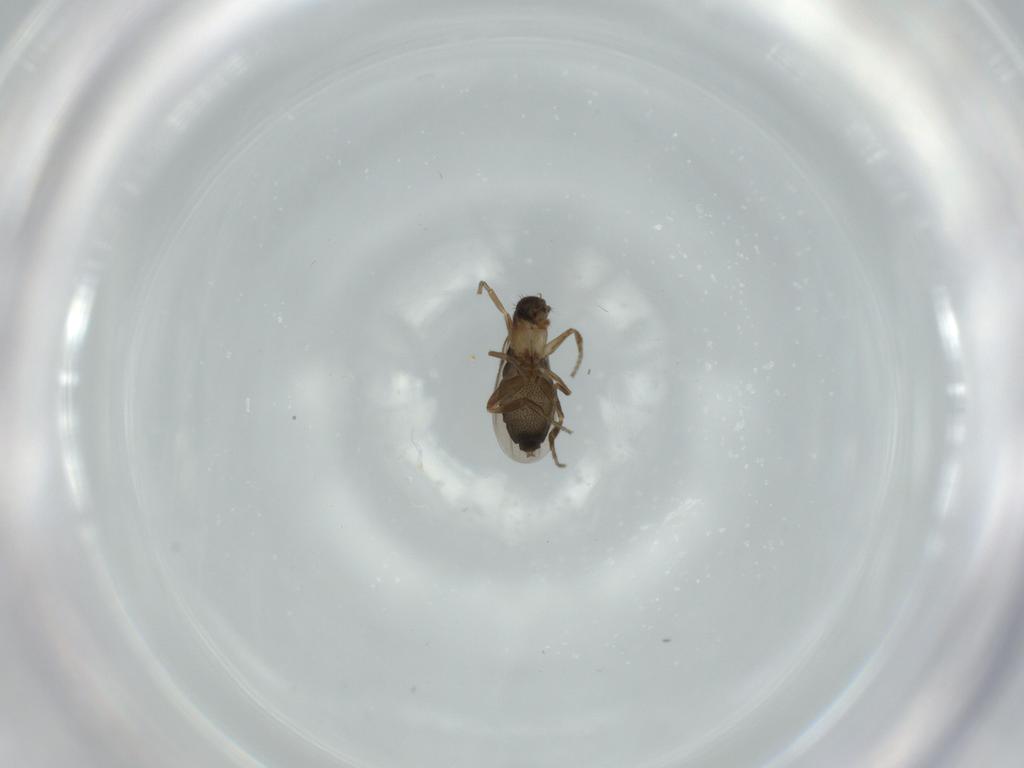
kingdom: Animalia
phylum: Arthropoda
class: Insecta
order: Diptera
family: Phoridae
